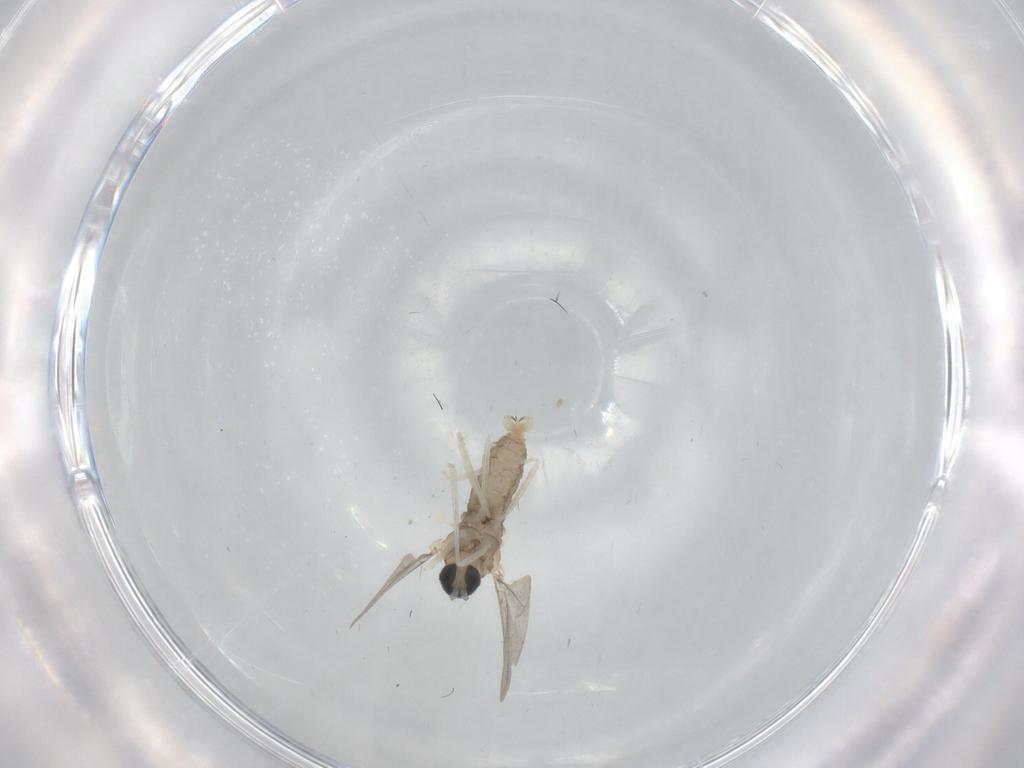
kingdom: Animalia
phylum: Arthropoda
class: Insecta
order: Diptera
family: Cecidomyiidae
